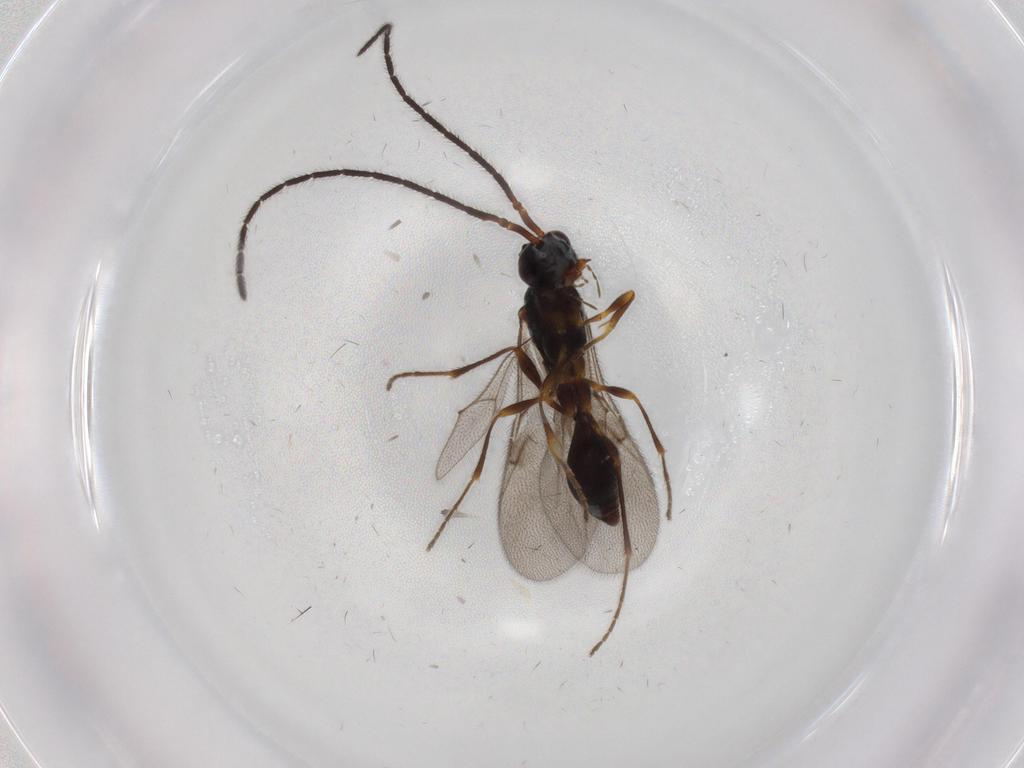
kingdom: Animalia
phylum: Arthropoda
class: Insecta
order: Hymenoptera
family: Diapriidae
